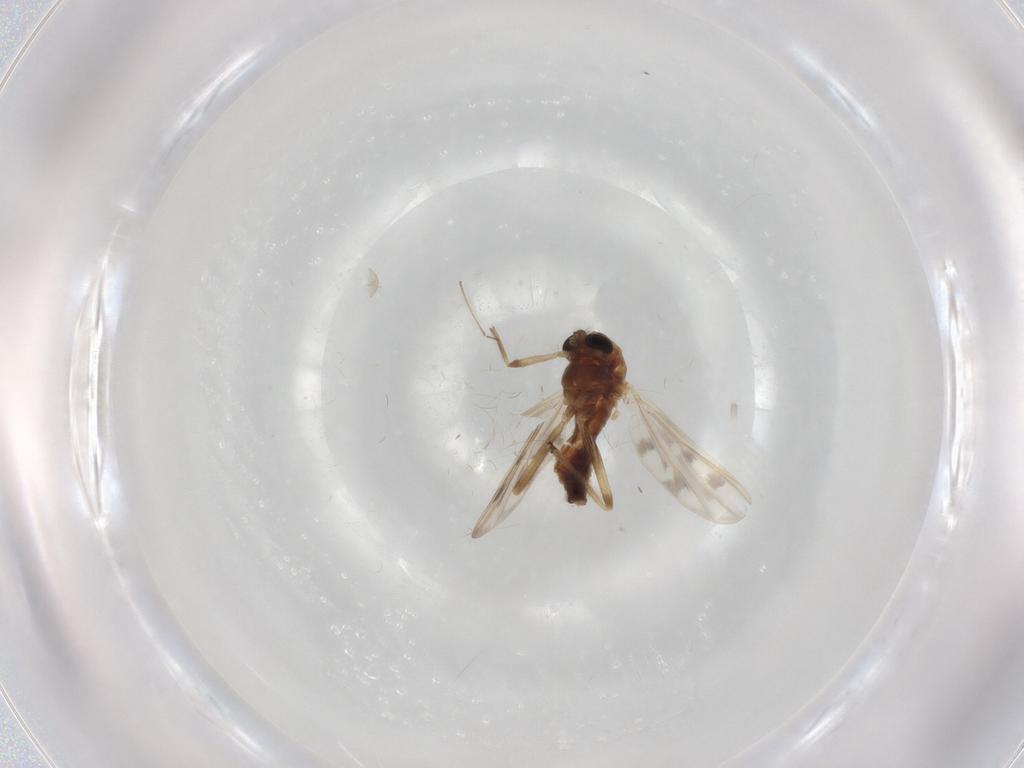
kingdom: Animalia
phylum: Arthropoda
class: Insecta
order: Diptera
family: Chironomidae
